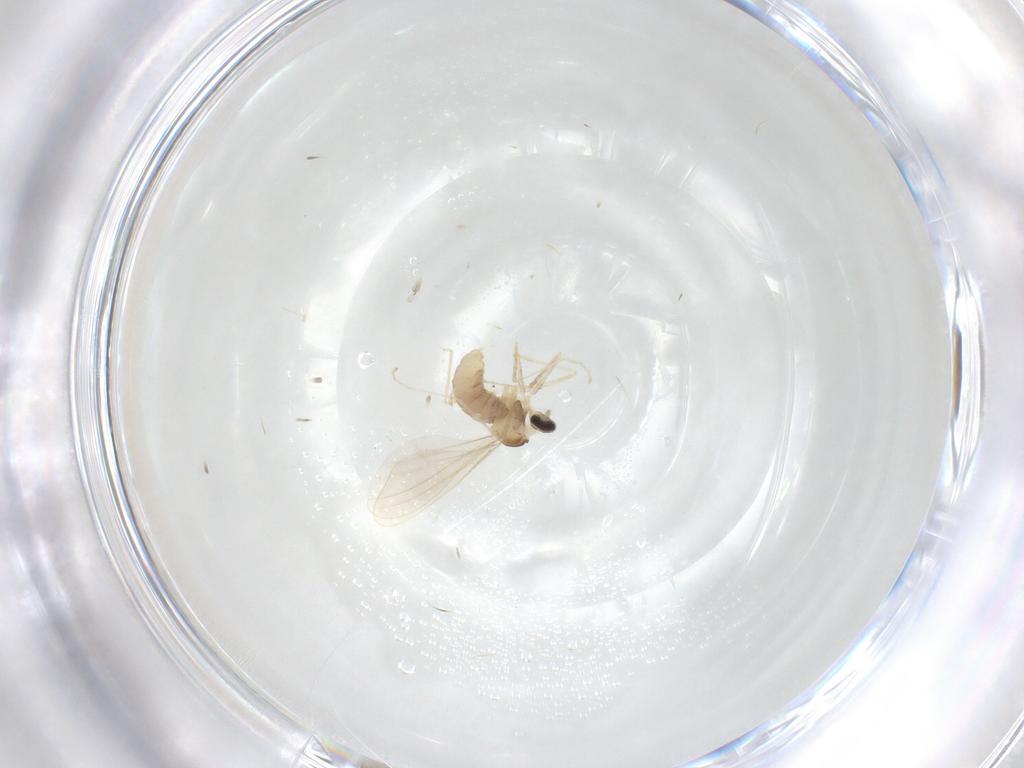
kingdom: Animalia
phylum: Arthropoda
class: Insecta
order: Diptera
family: Cecidomyiidae
